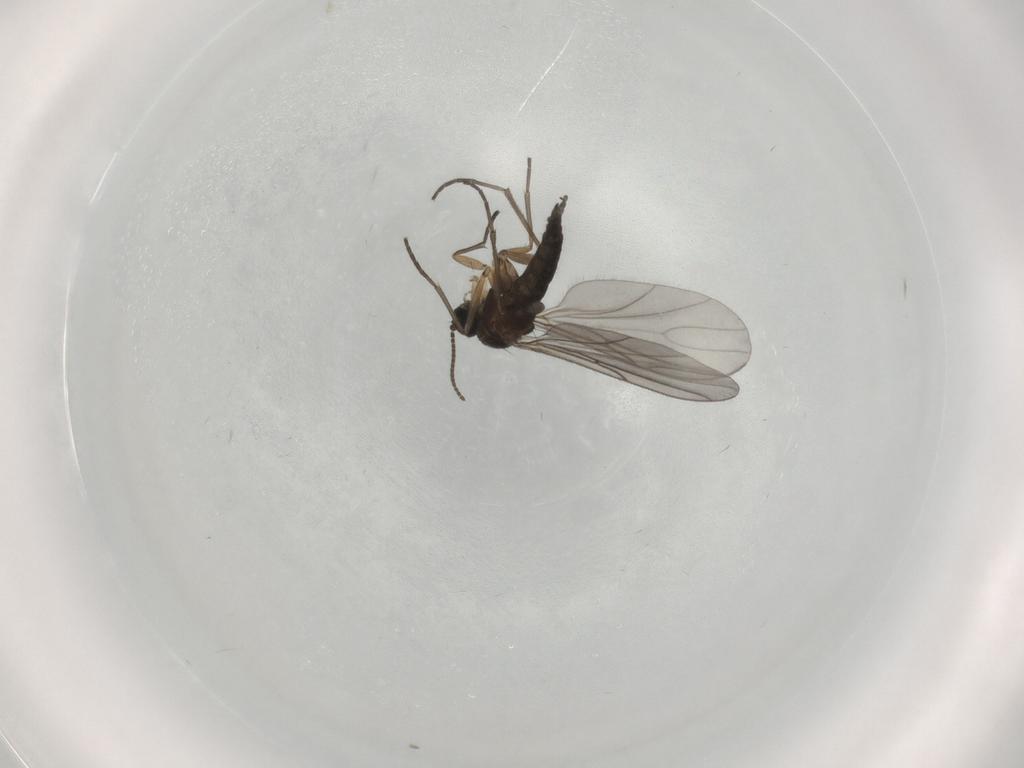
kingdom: Animalia
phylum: Arthropoda
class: Insecta
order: Diptera
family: Sciaridae
